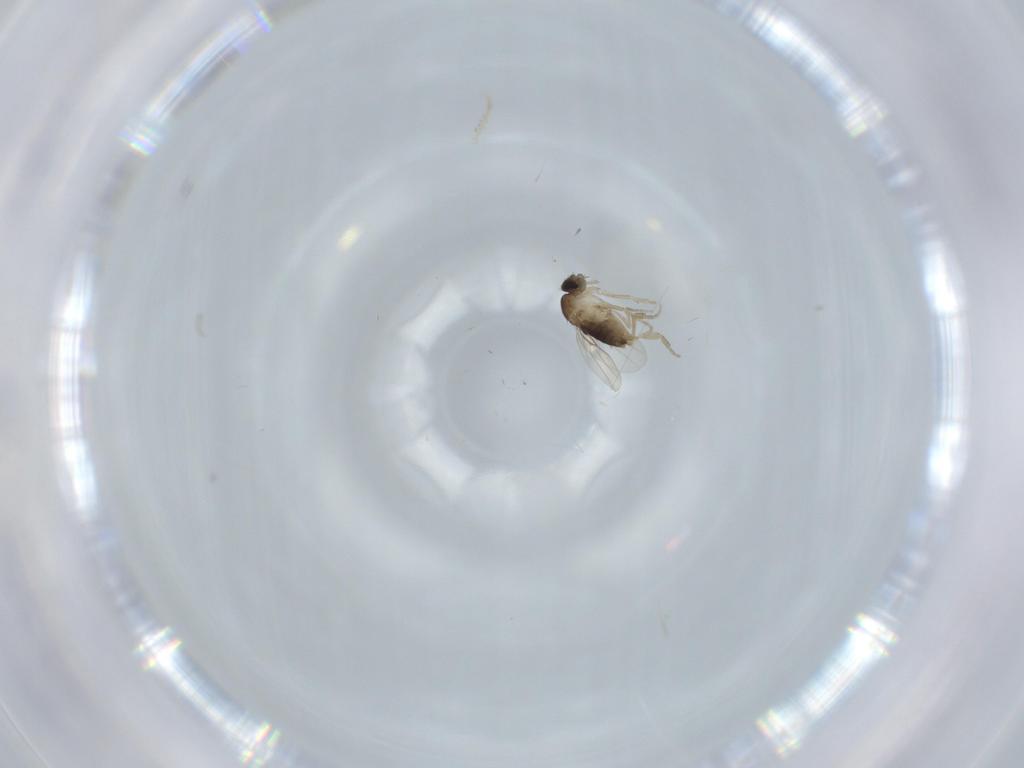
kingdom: Animalia
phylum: Arthropoda
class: Insecta
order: Diptera
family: Phoridae
